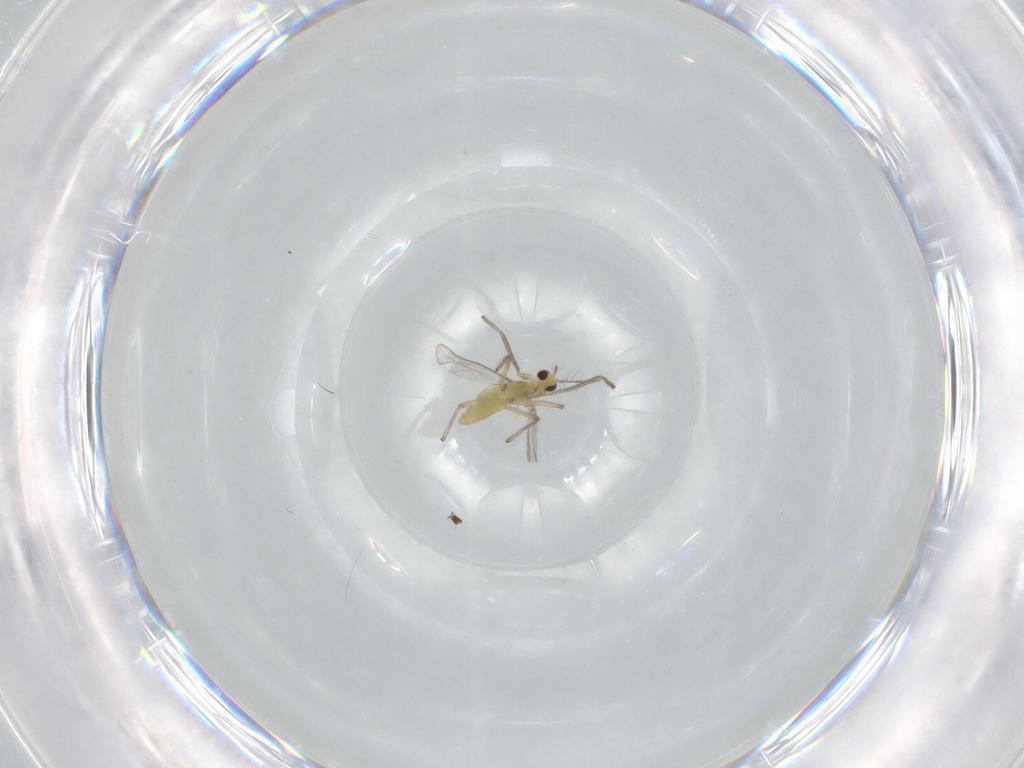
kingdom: Animalia
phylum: Arthropoda
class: Insecta
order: Diptera
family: Chironomidae
